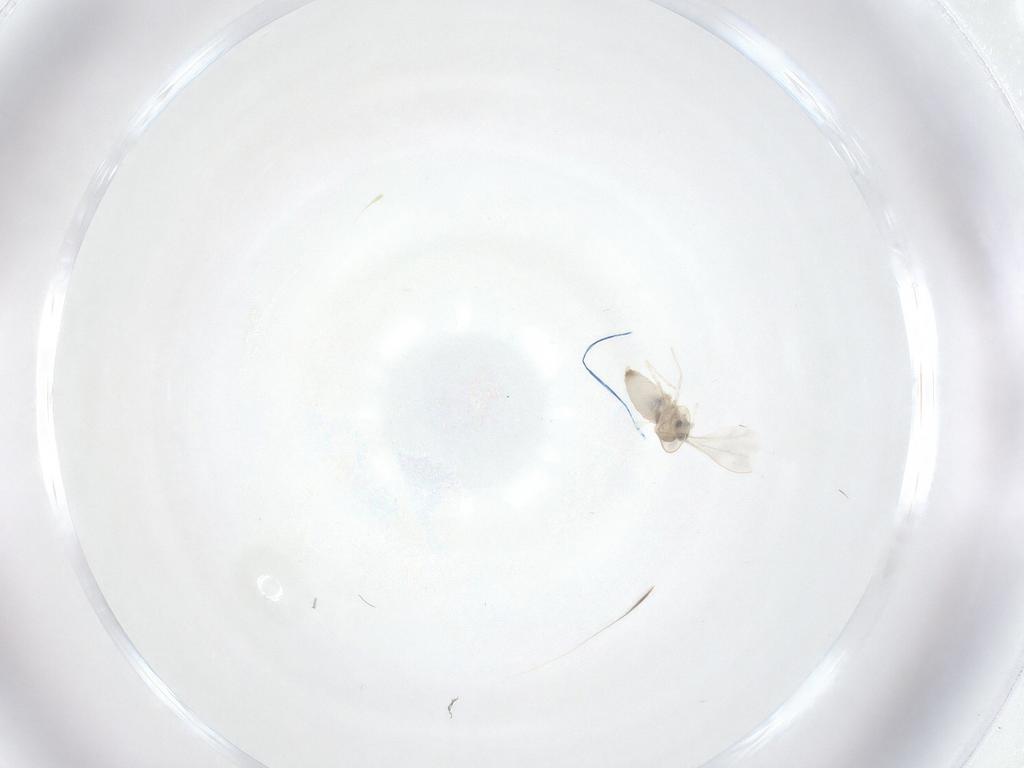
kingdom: Animalia
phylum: Arthropoda
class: Insecta
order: Diptera
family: Cecidomyiidae
